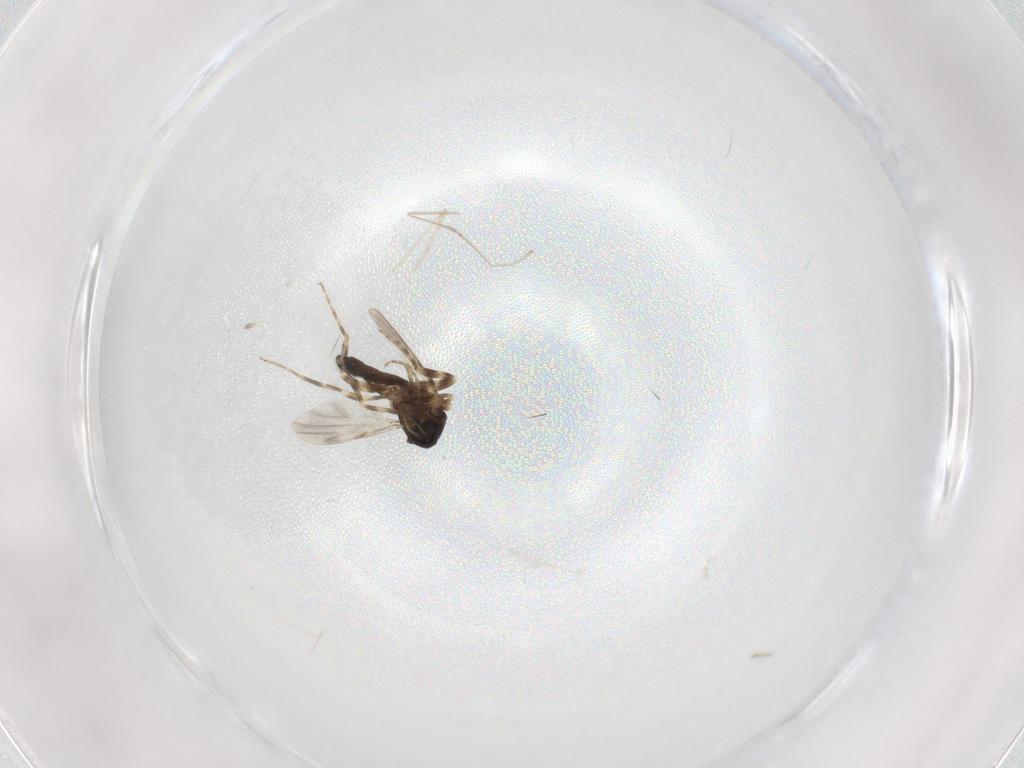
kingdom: Animalia
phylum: Arthropoda
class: Insecta
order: Diptera
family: Ceratopogonidae
